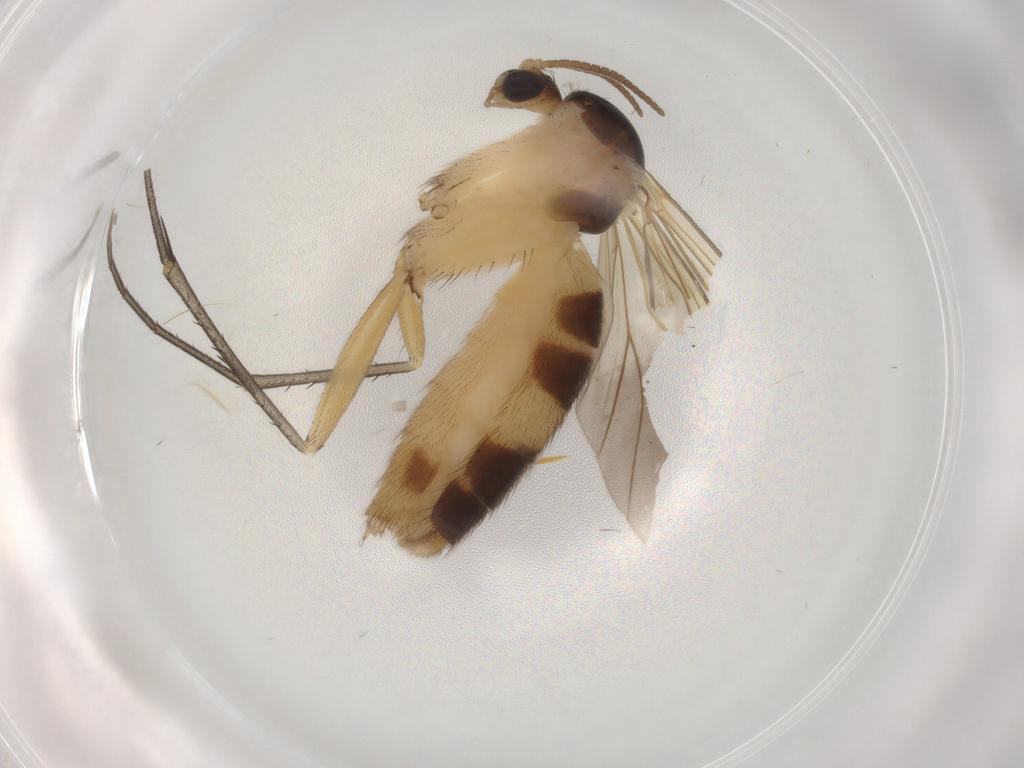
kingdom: Animalia
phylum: Arthropoda
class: Insecta
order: Diptera
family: Mycetophilidae
